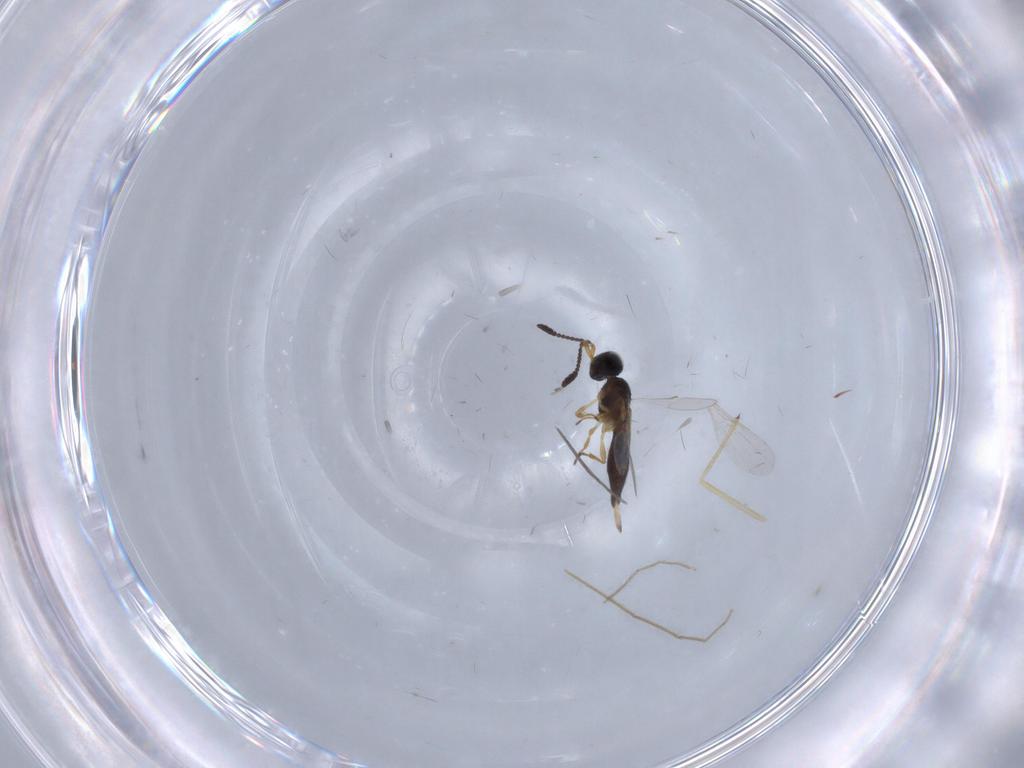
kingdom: Animalia
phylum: Arthropoda
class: Insecta
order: Hymenoptera
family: Scelionidae
